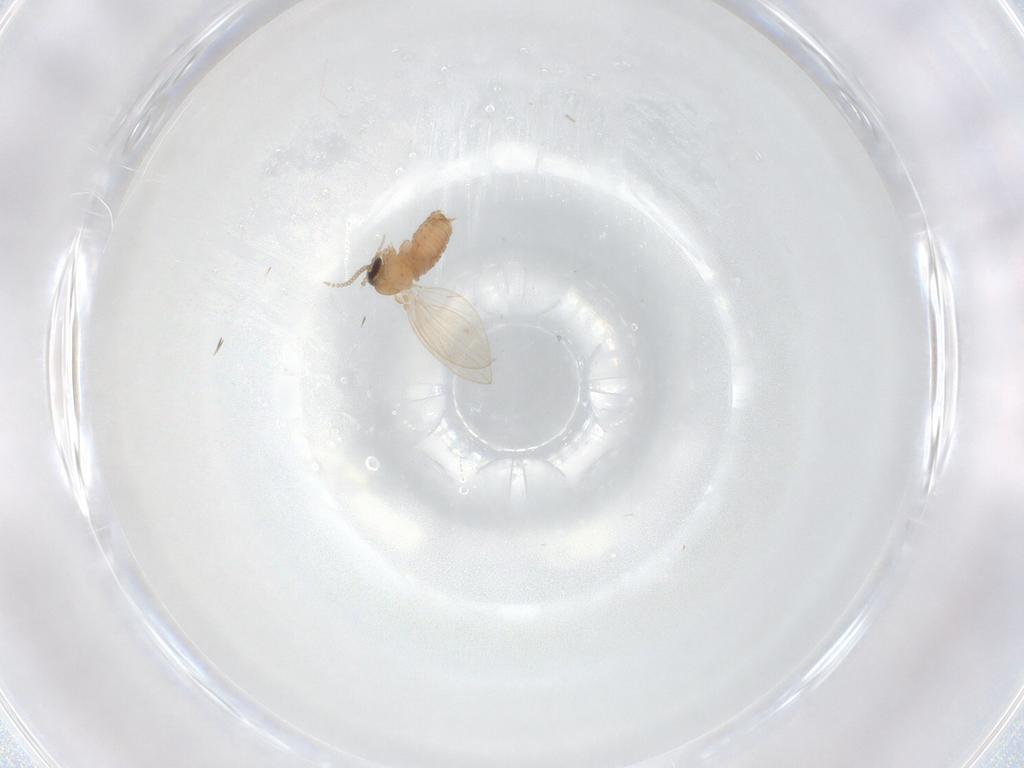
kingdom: Animalia
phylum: Arthropoda
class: Insecta
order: Diptera
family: Psychodidae
